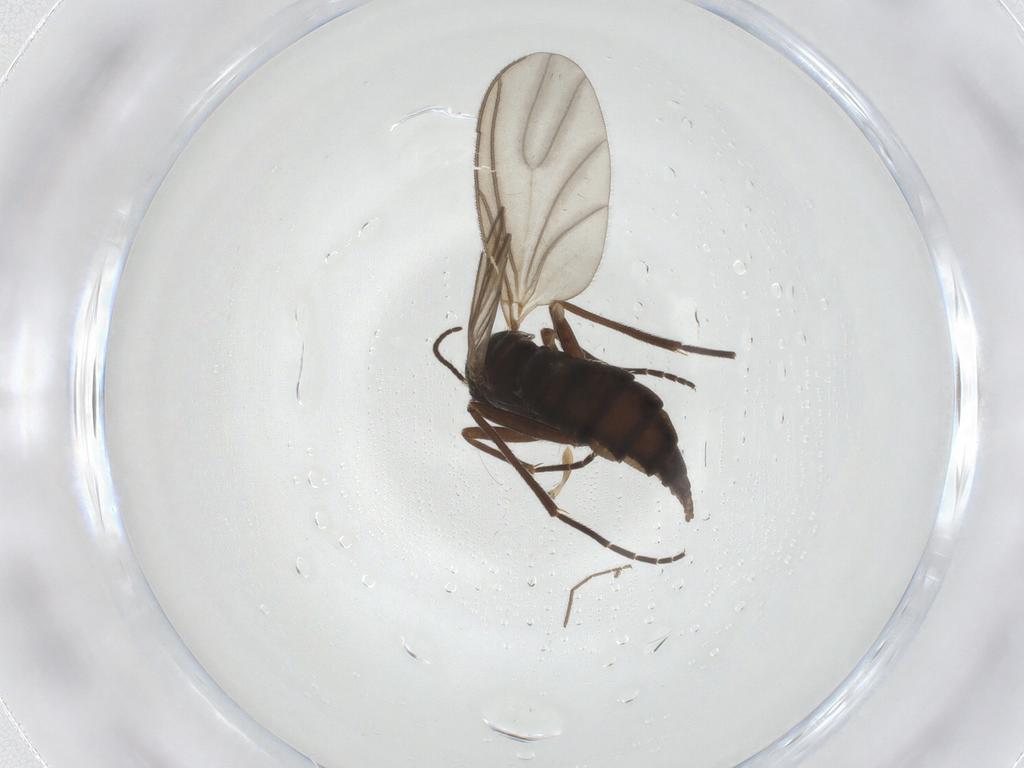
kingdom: Animalia
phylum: Arthropoda
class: Insecta
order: Diptera
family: Sciaridae
